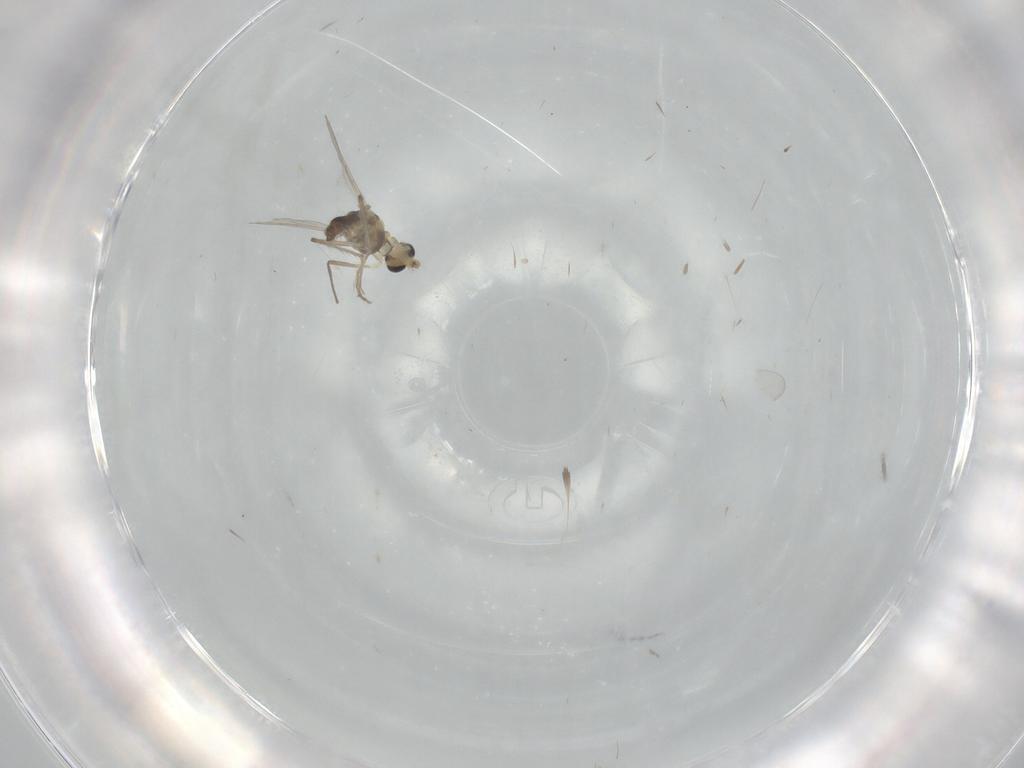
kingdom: Animalia
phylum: Arthropoda
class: Insecta
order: Diptera
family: Chironomidae
